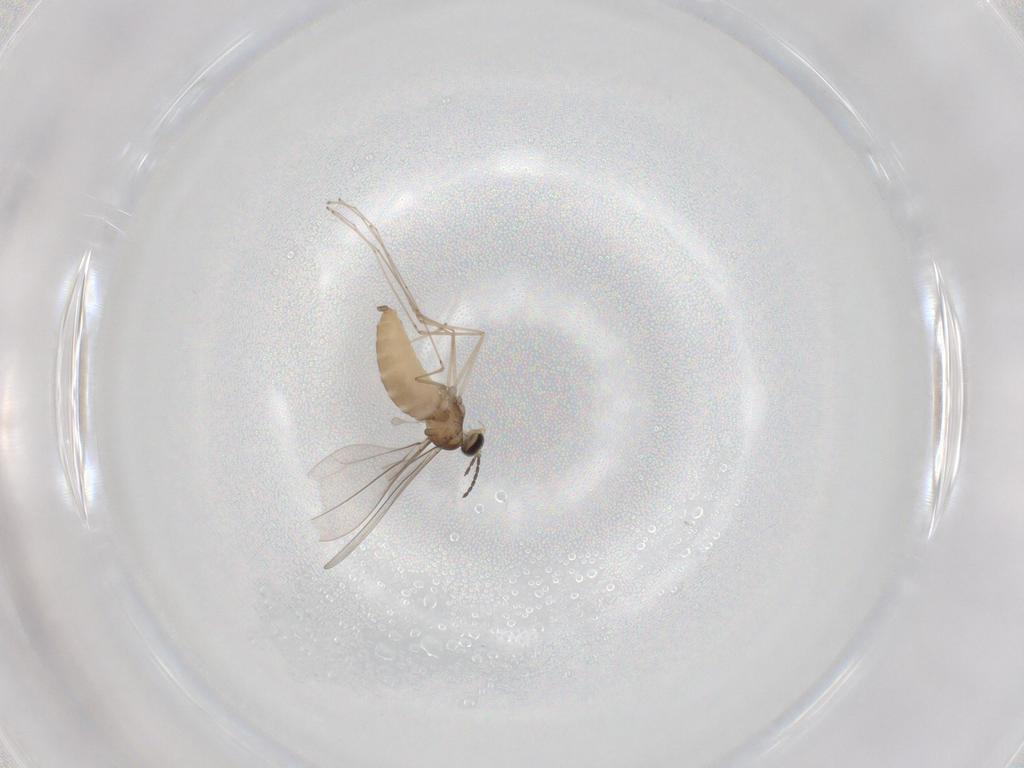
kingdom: Animalia
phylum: Arthropoda
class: Insecta
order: Diptera
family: Cecidomyiidae
